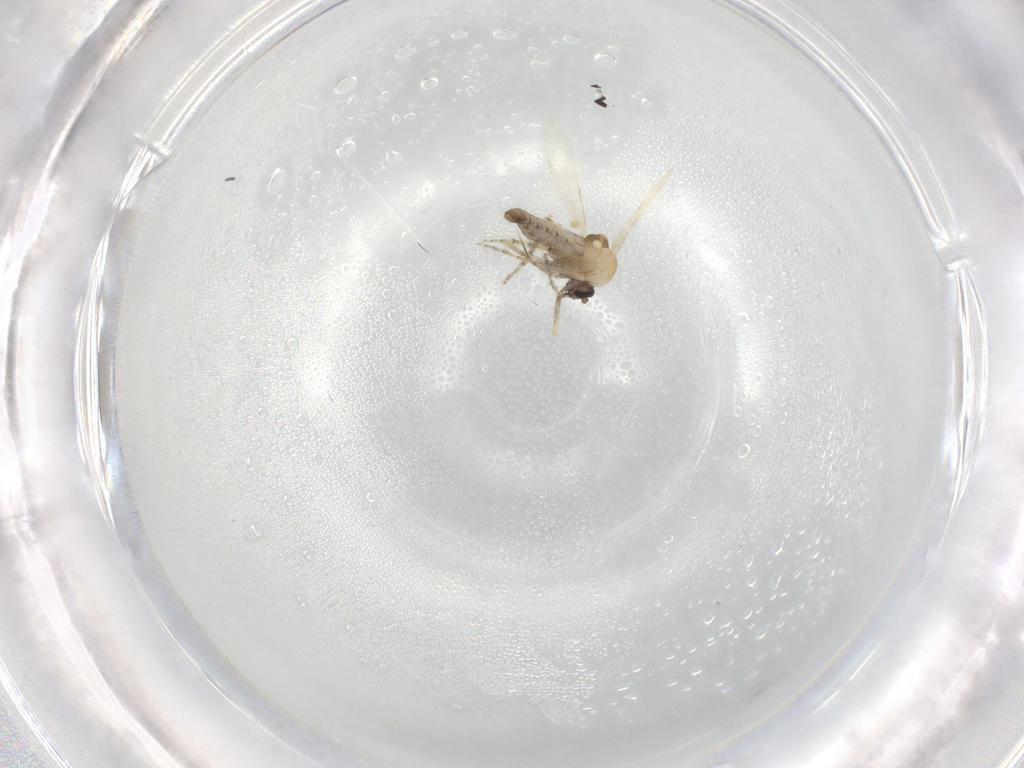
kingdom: Animalia
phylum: Arthropoda
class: Insecta
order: Diptera
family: Ceratopogonidae
